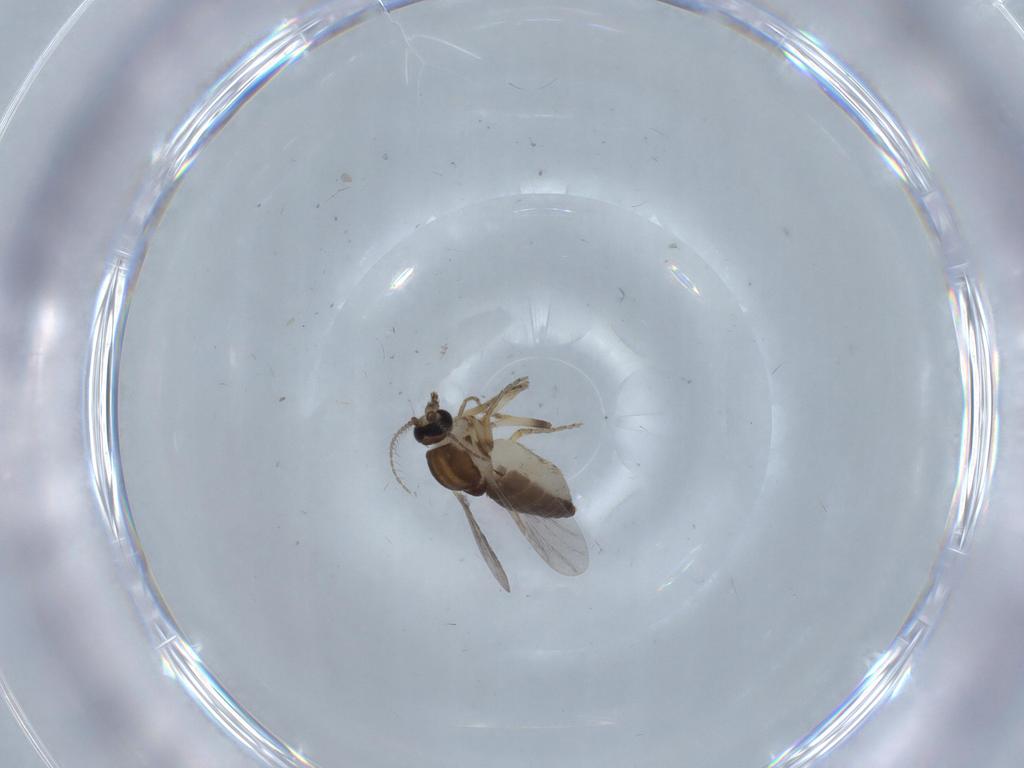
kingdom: Animalia
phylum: Arthropoda
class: Insecta
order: Diptera
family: Ceratopogonidae
